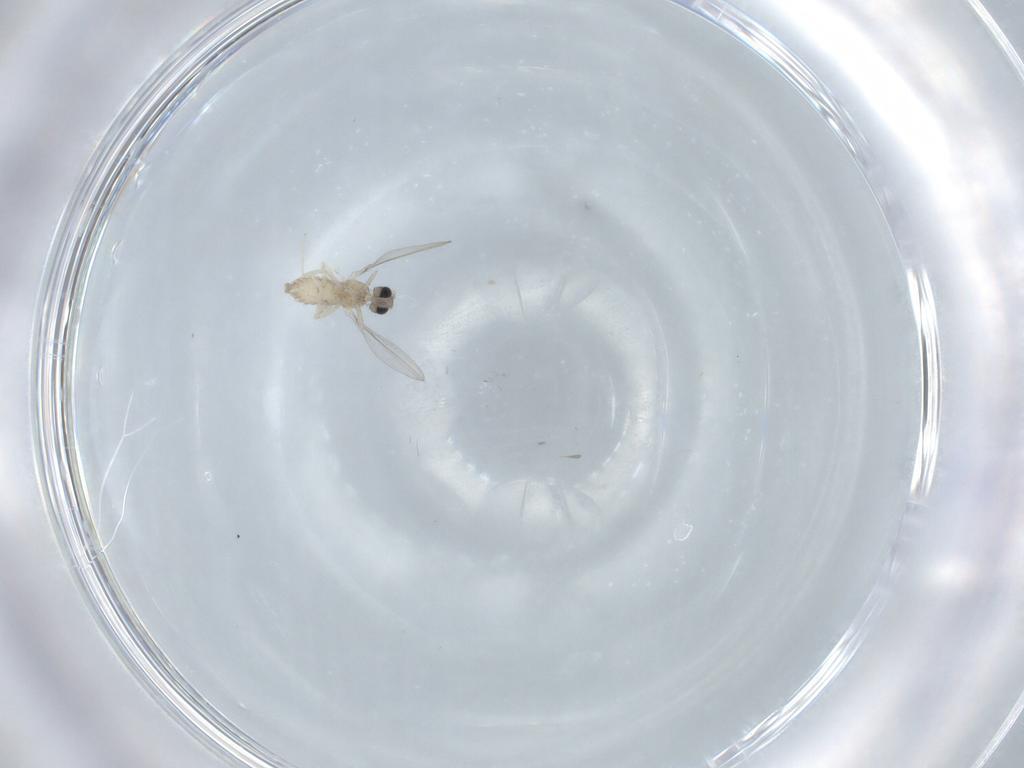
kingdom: Animalia
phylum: Arthropoda
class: Insecta
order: Diptera
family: Cecidomyiidae
